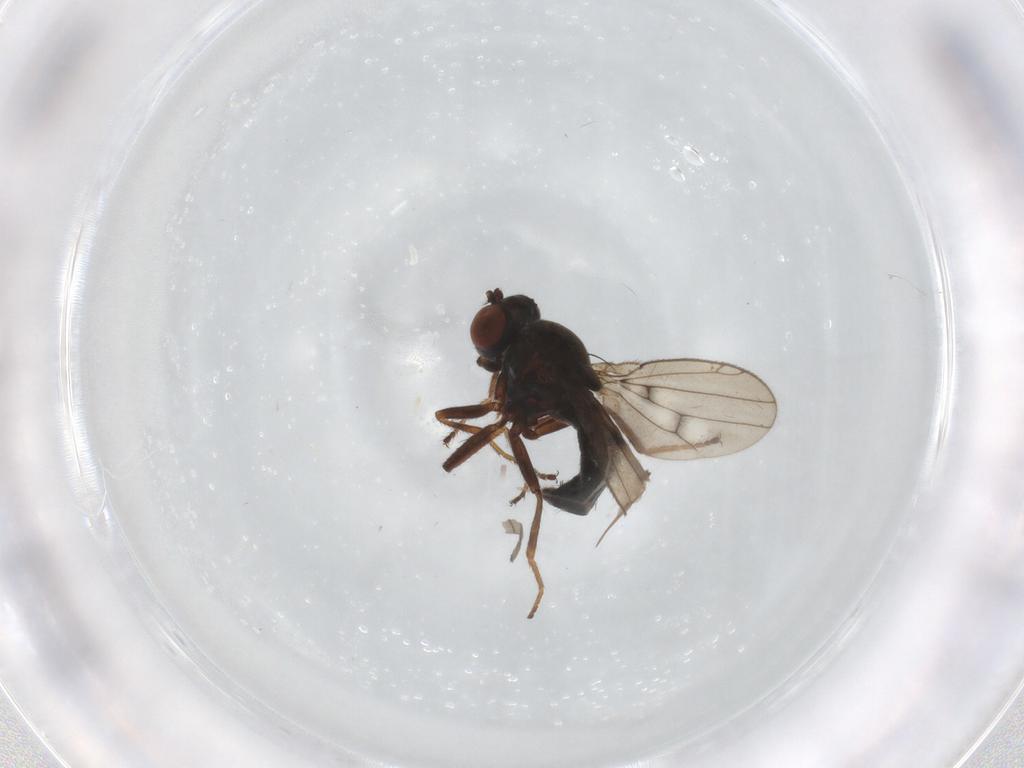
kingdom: Animalia
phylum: Arthropoda
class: Insecta
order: Diptera
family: Ephydridae
